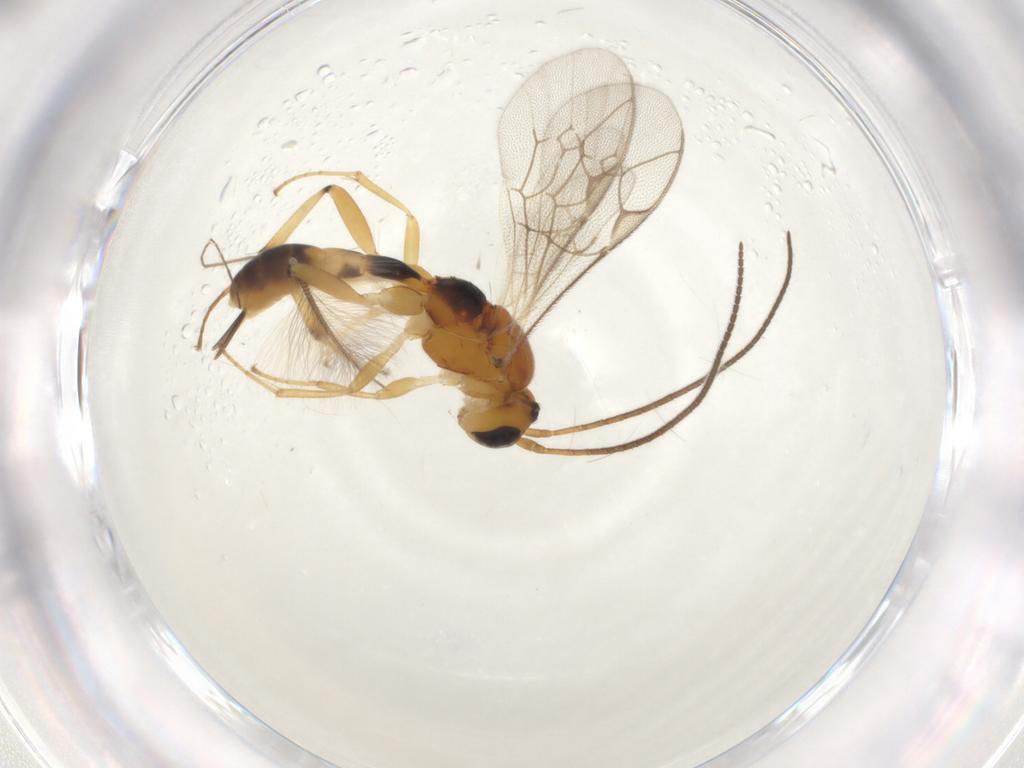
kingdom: Animalia
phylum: Arthropoda
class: Insecta
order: Hymenoptera
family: Ichneumonidae
